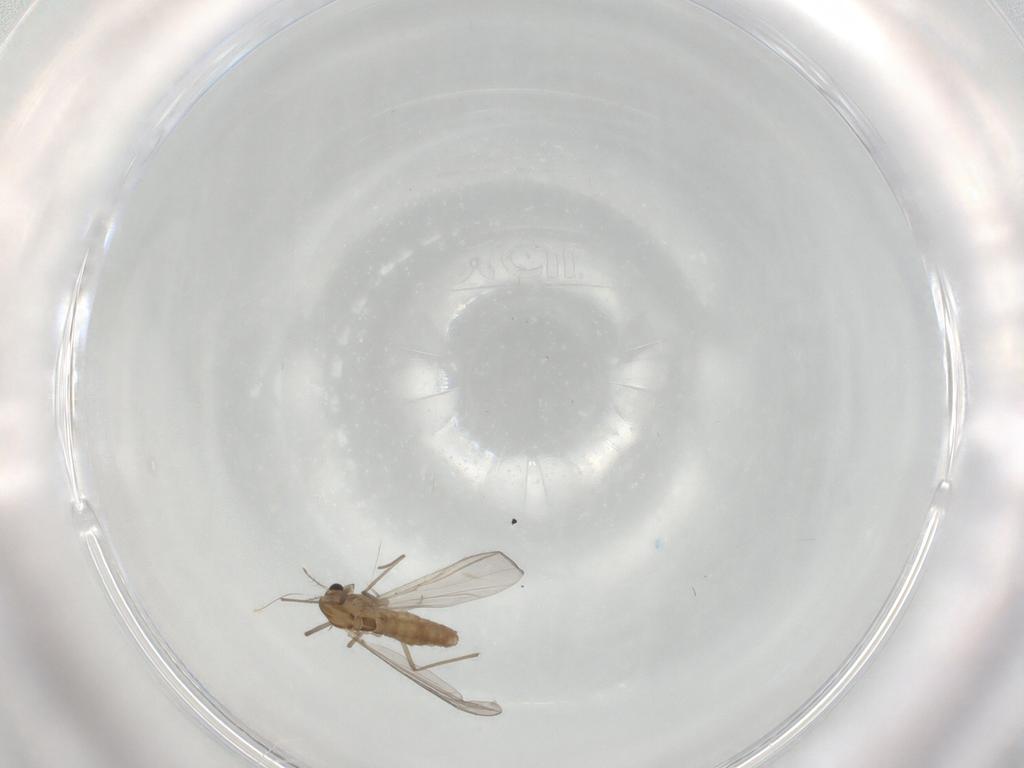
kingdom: Animalia
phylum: Arthropoda
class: Insecta
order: Diptera
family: Chironomidae
